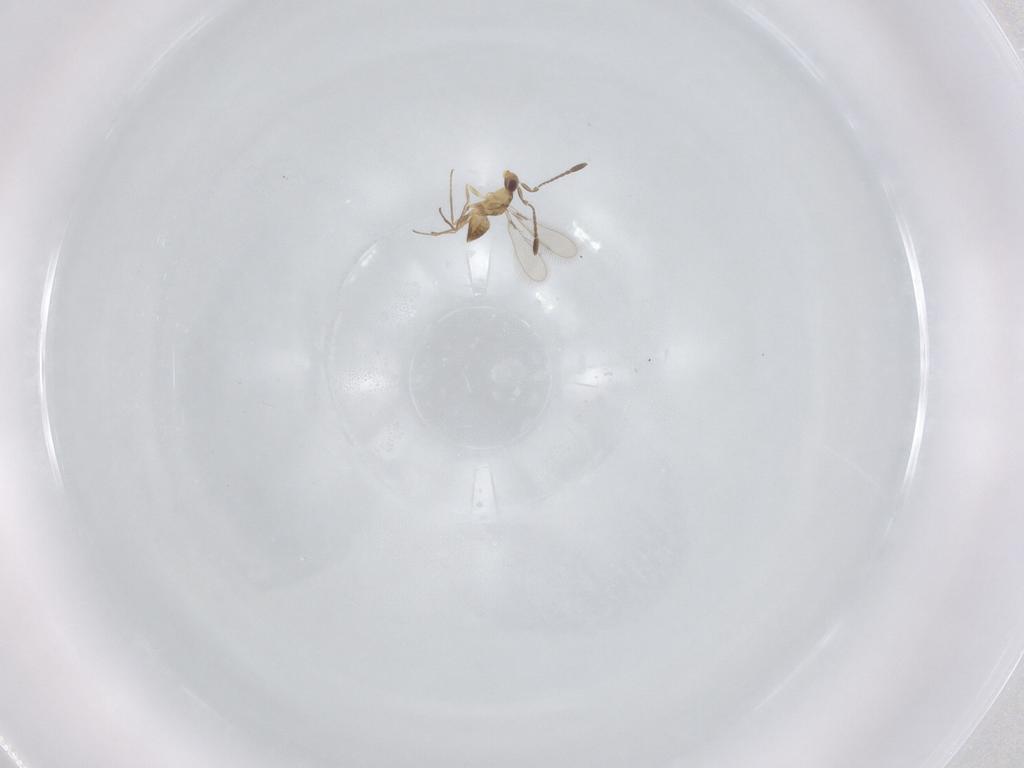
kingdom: Animalia
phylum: Arthropoda
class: Insecta
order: Hymenoptera
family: Mymaridae
